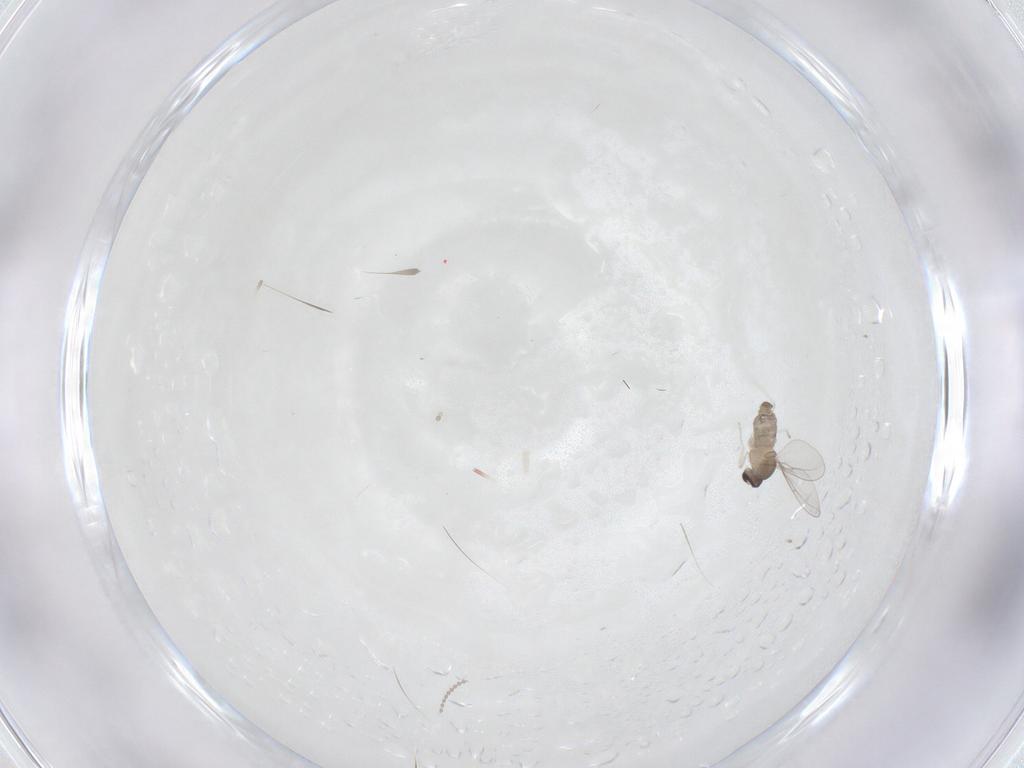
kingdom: Animalia
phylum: Arthropoda
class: Insecta
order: Diptera
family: Cecidomyiidae
